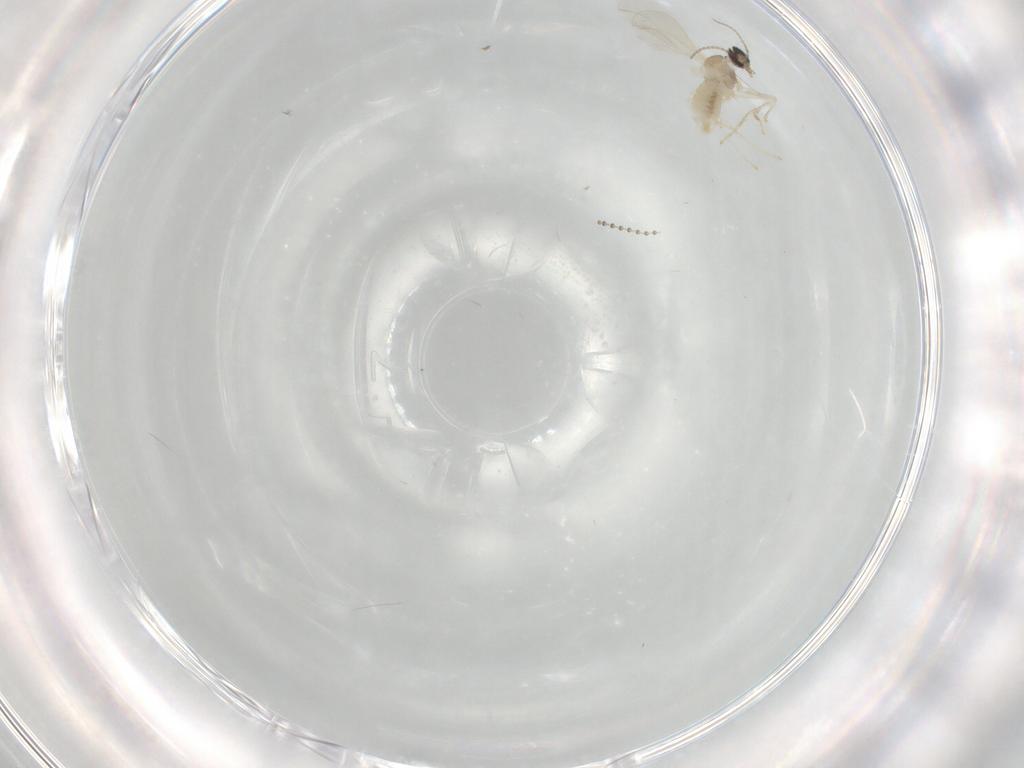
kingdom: Animalia
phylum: Arthropoda
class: Insecta
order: Diptera
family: Cecidomyiidae
